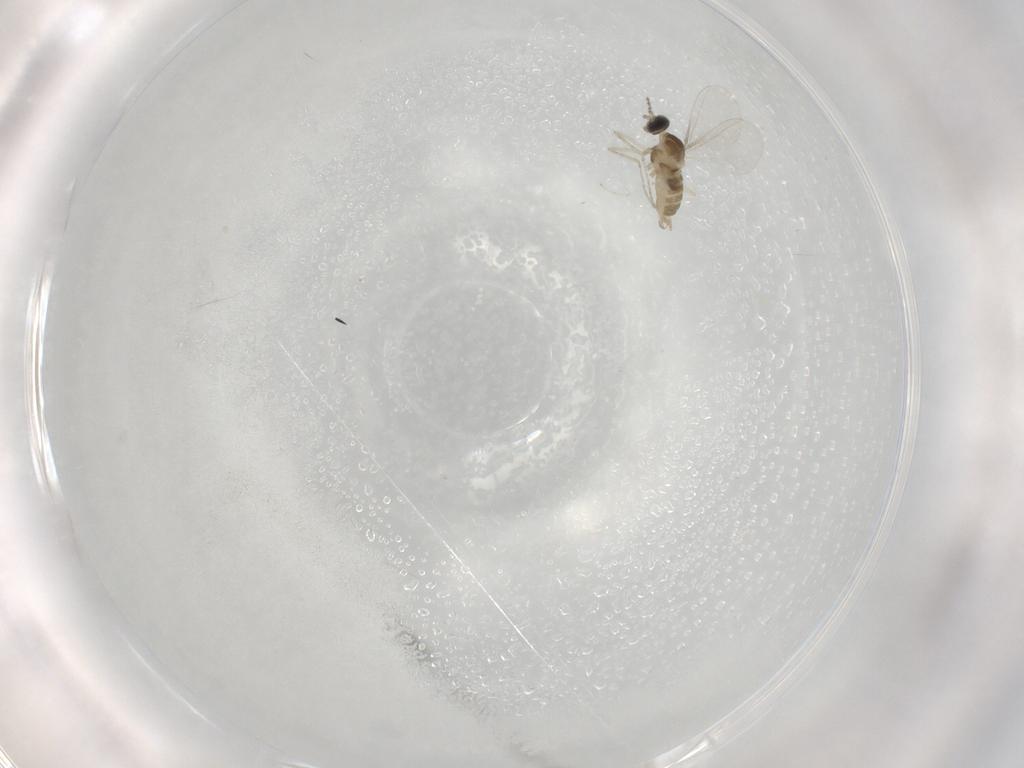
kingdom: Animalia
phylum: Arthropoda
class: Insecta
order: Diptera
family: Cecidomyiidae
